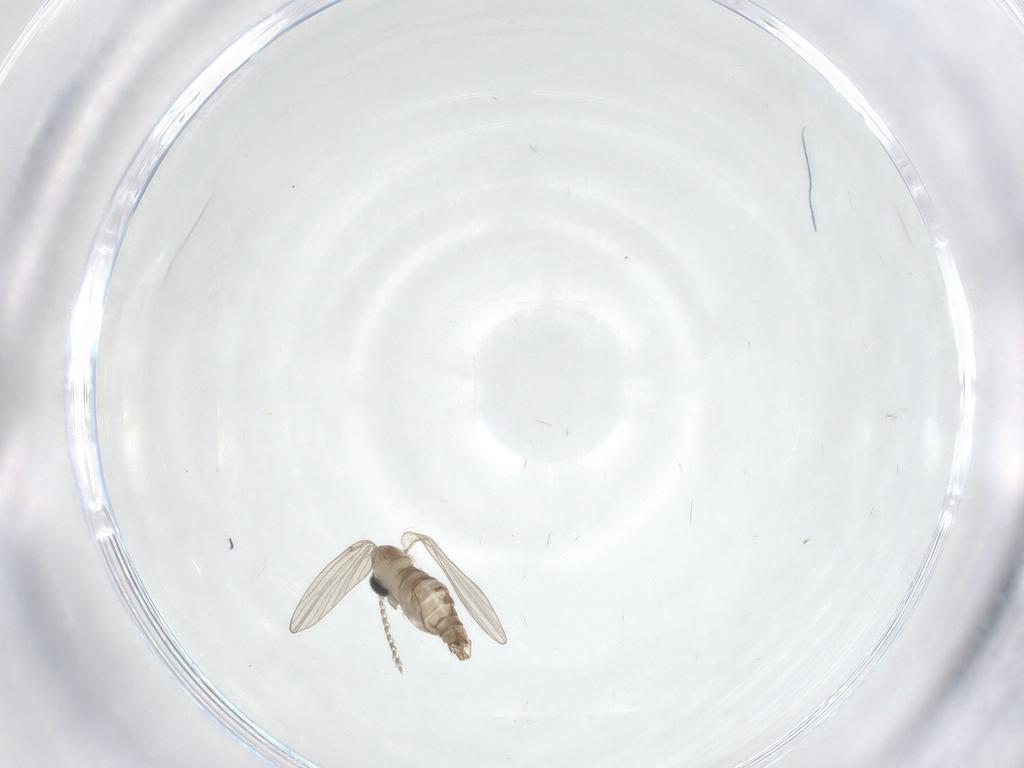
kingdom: Animalia
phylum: Arthropoda
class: Insecta
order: Diptera
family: Psychodidae
